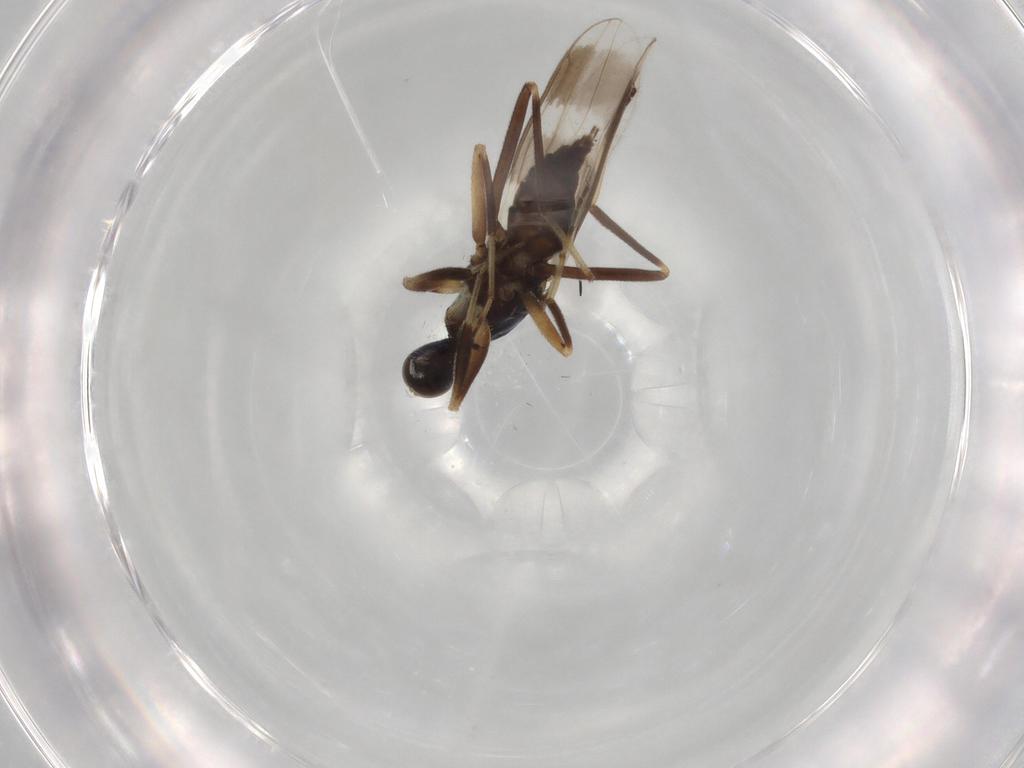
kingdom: Animalia
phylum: Arthropoda
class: Insecta
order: Diptera
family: Hybotidae
